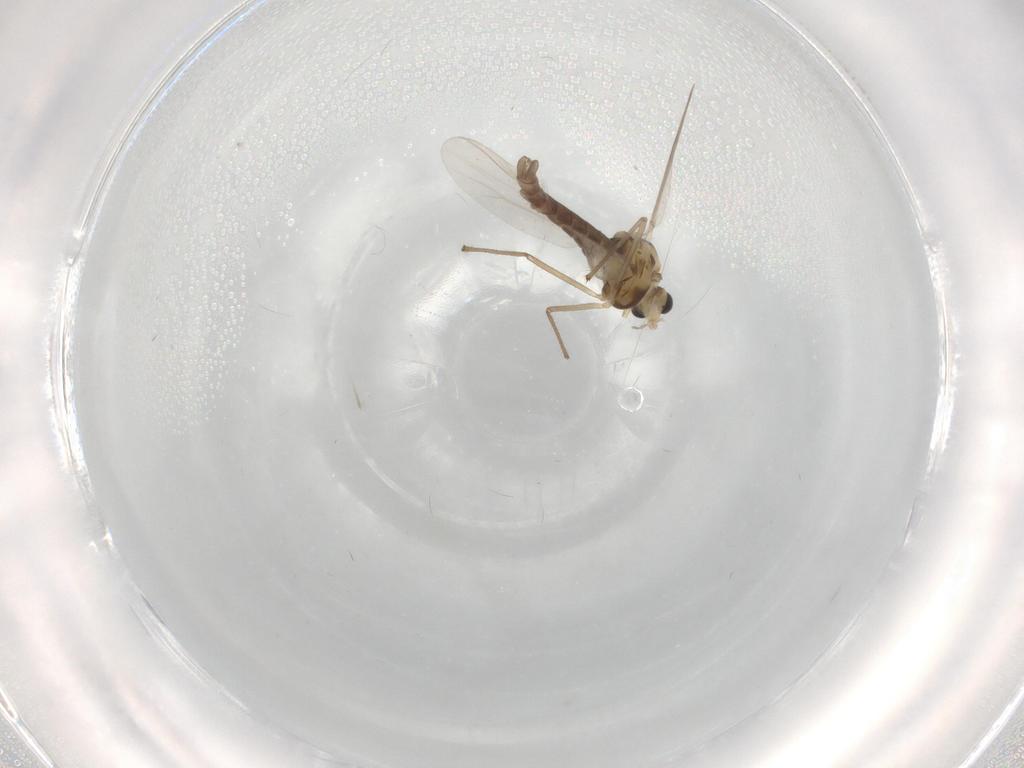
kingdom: Animalia
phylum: Arthropoda
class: Insecta
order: Diptera
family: Chironomidae
